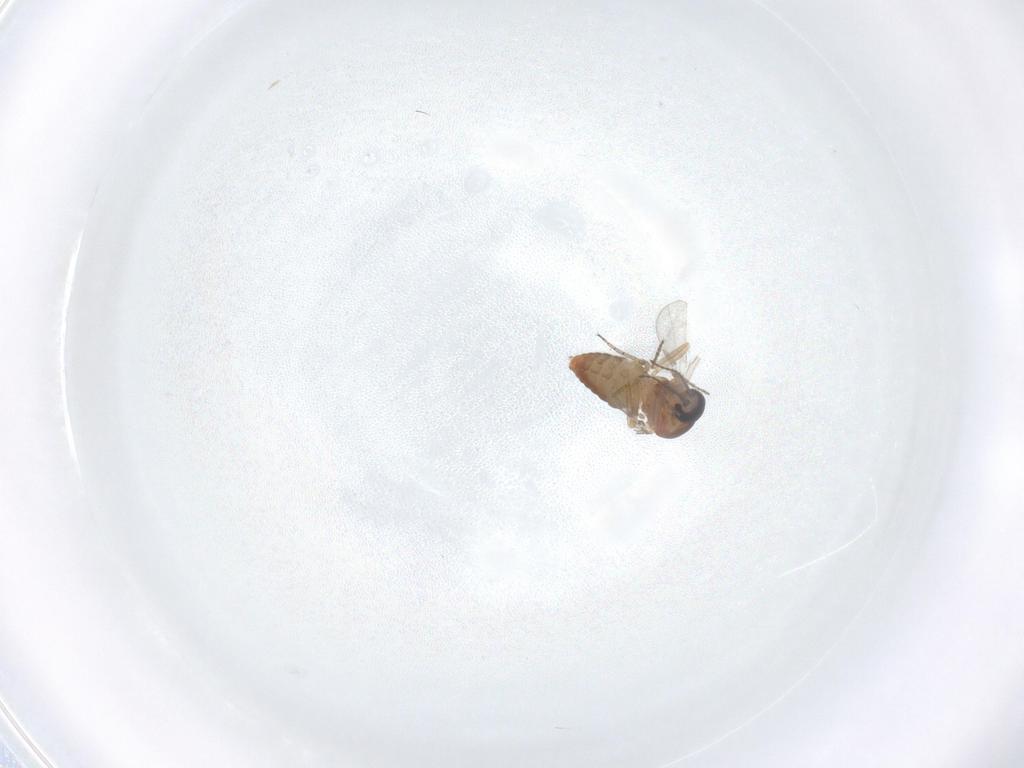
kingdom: Animalia
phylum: Arthropoda
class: Insecta
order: Diptera
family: Ceratopogonidae
